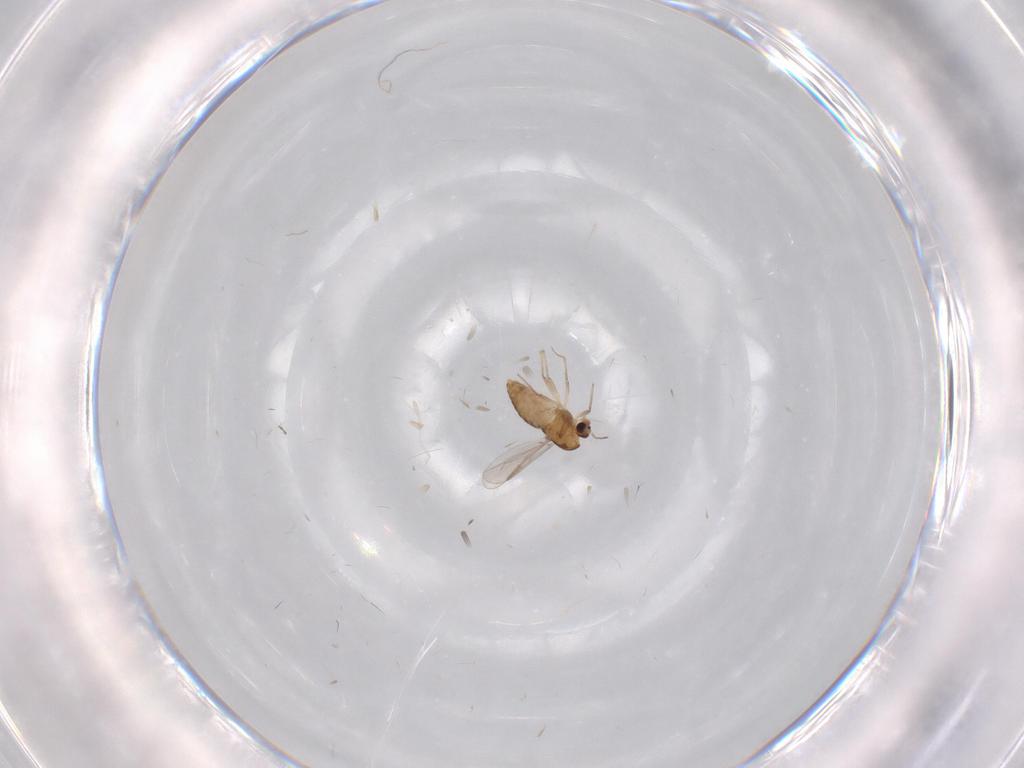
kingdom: Animalia
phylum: Arthropoda
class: Insecta
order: Diptera
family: Chironomidae
